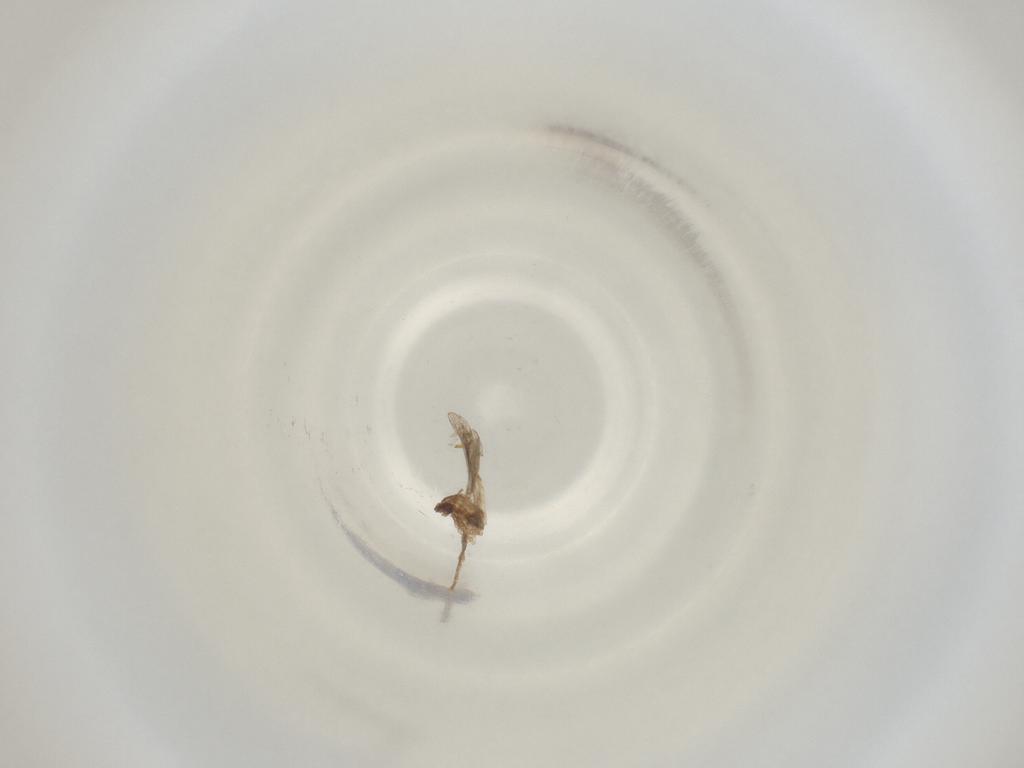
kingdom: Animalia
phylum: Arthropoda
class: Insecta
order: Diptera
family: Cecidomyiidae
